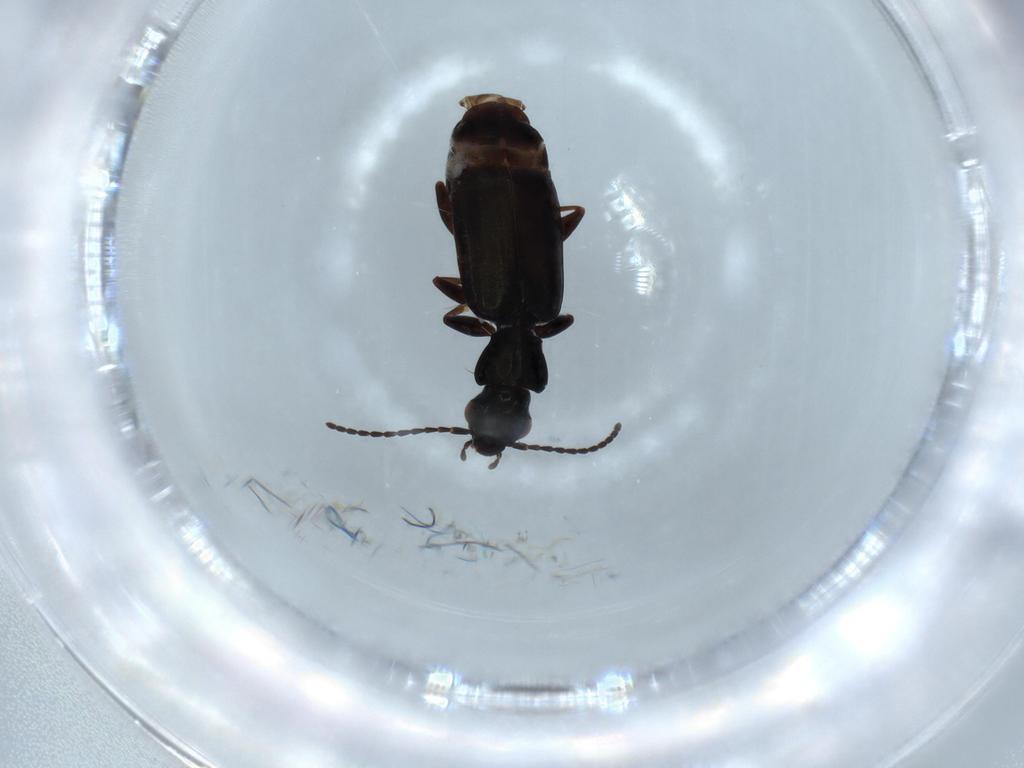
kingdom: Animalia
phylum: Arthropoda
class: Insecta
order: Coleoptera
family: Carabidae
